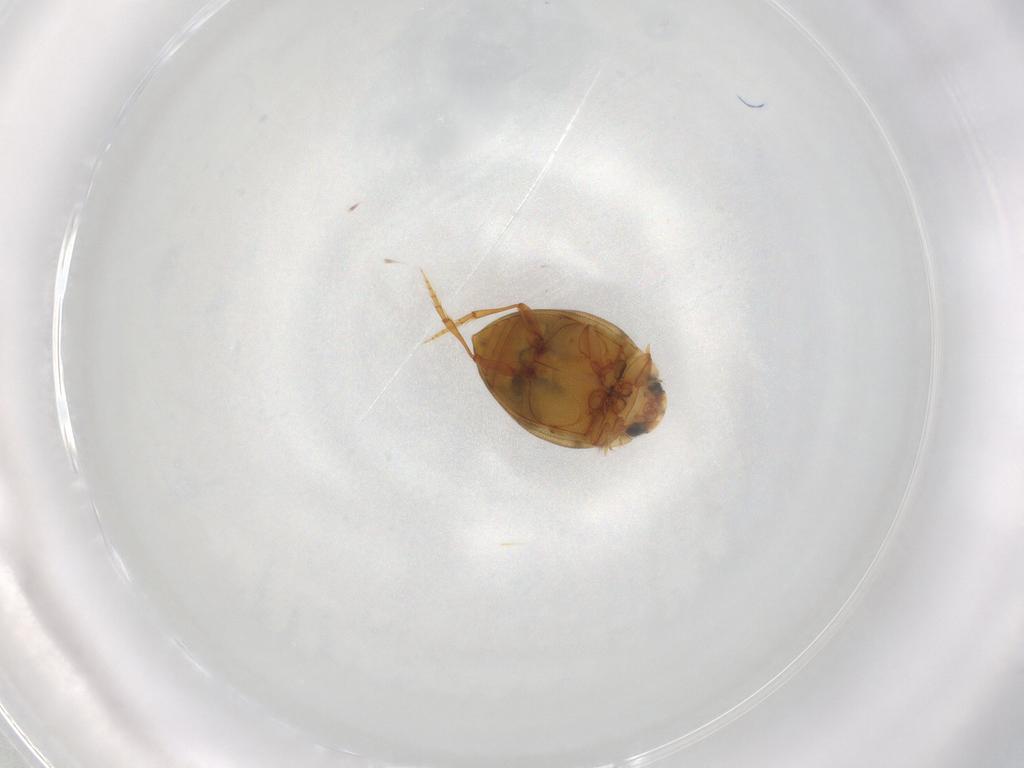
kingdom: Animalia
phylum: Arthropoda
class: Insecta
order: Coleoptera
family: Dytiscidae
